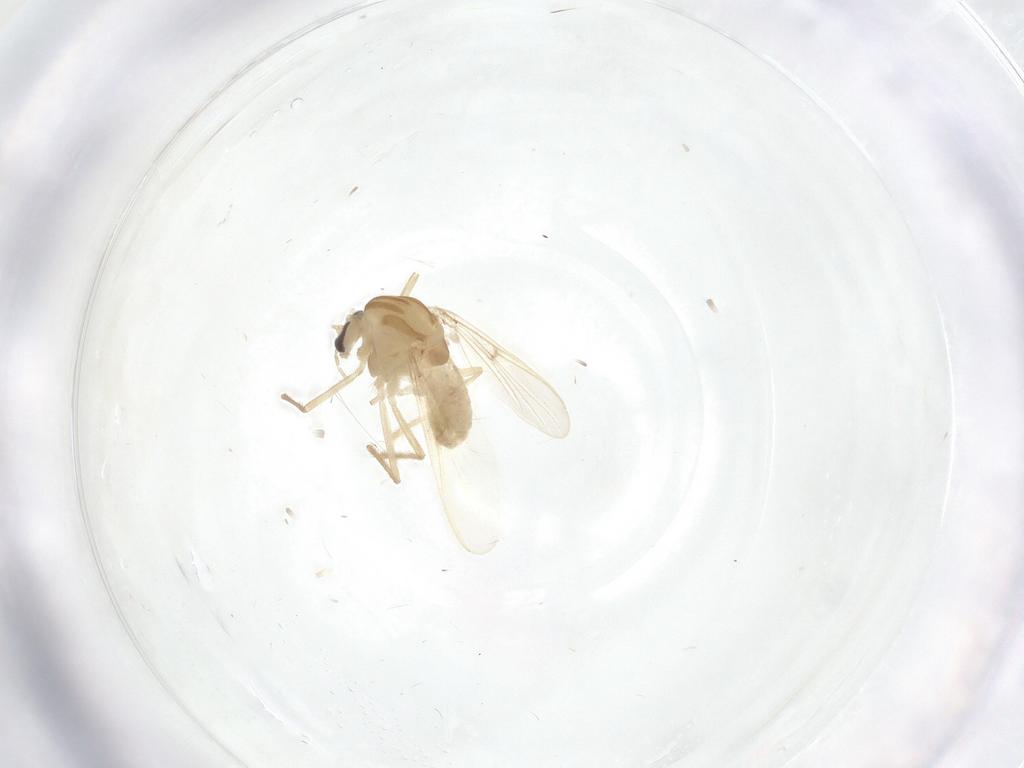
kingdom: Animalia
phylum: Arthropoda
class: Insecta
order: Diptera
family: Chironomidae
